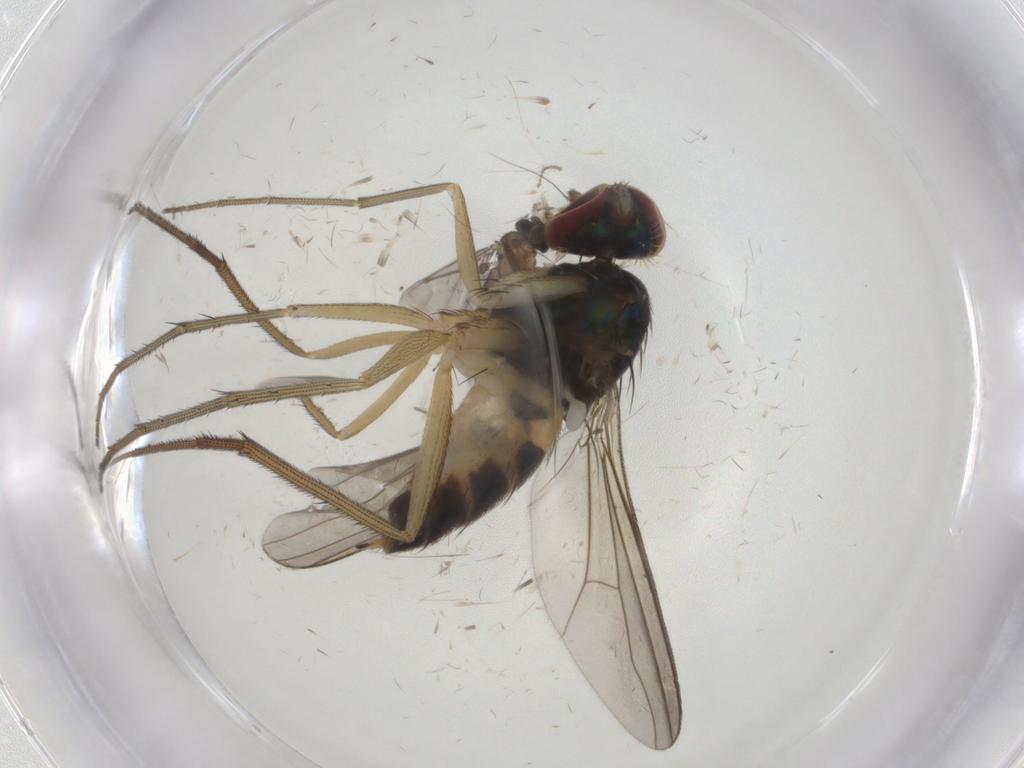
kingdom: Animalia
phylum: Arthropoda
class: Insecta
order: Diptera
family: Dolichopodidae
